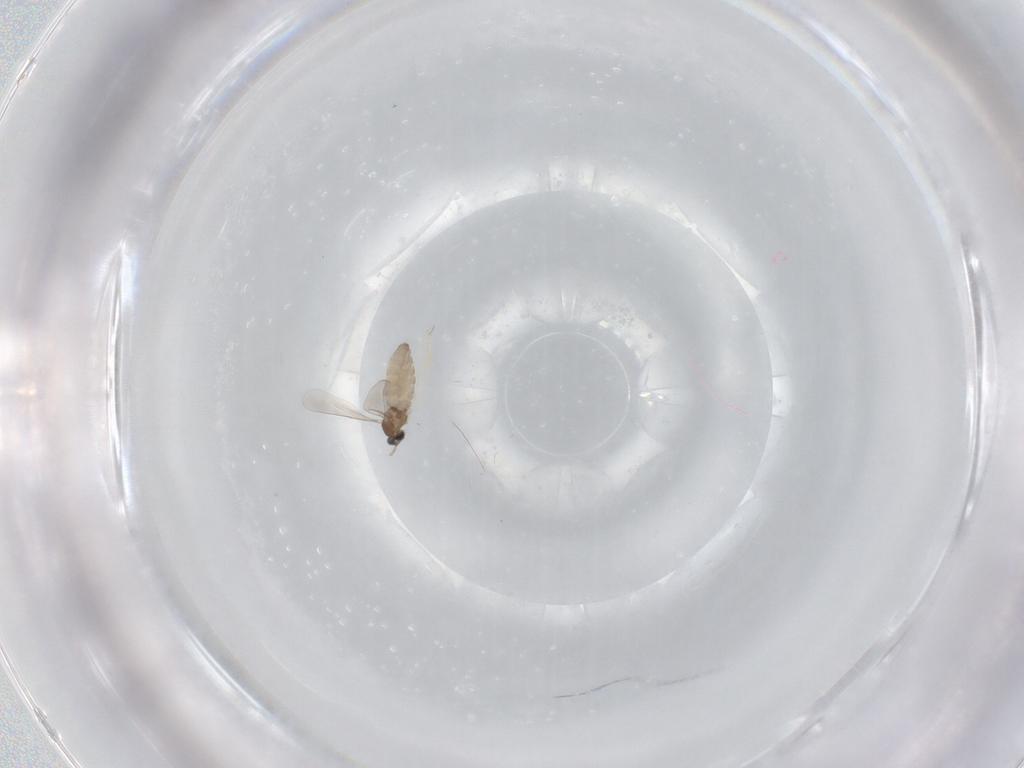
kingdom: Animalia
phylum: Arthropoda
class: Insecta
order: Diptera
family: Cecidomyiidae
